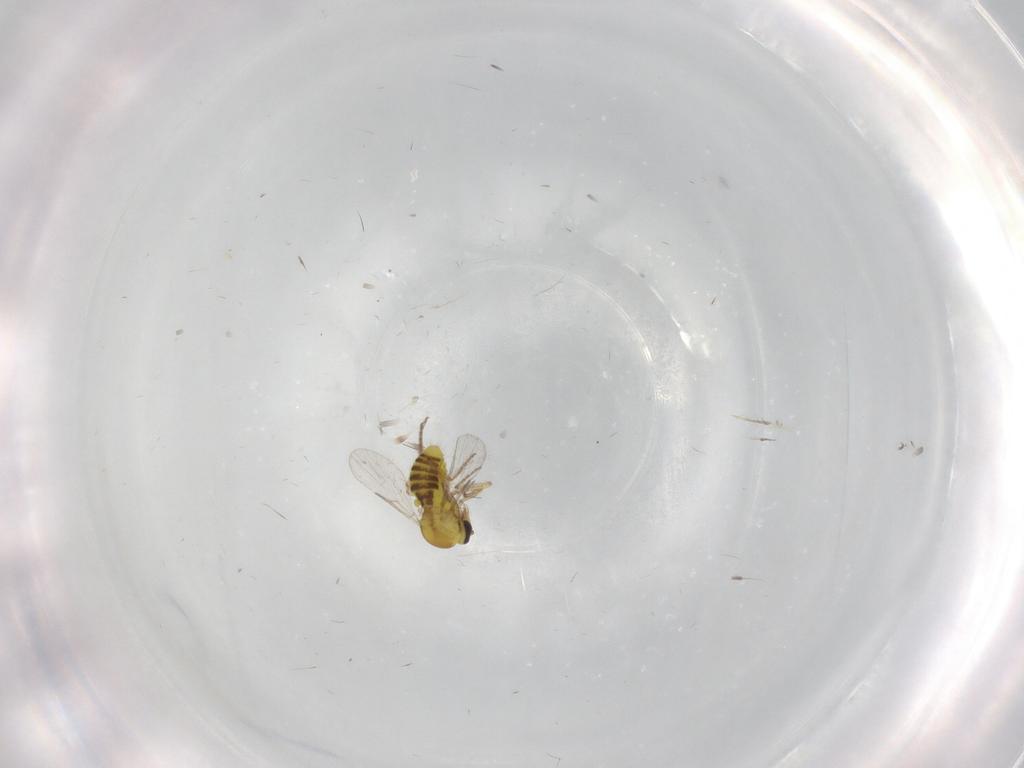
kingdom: Animalia
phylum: Arthropoda
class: Insecta
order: Diptera
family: Ceratopogonidae
